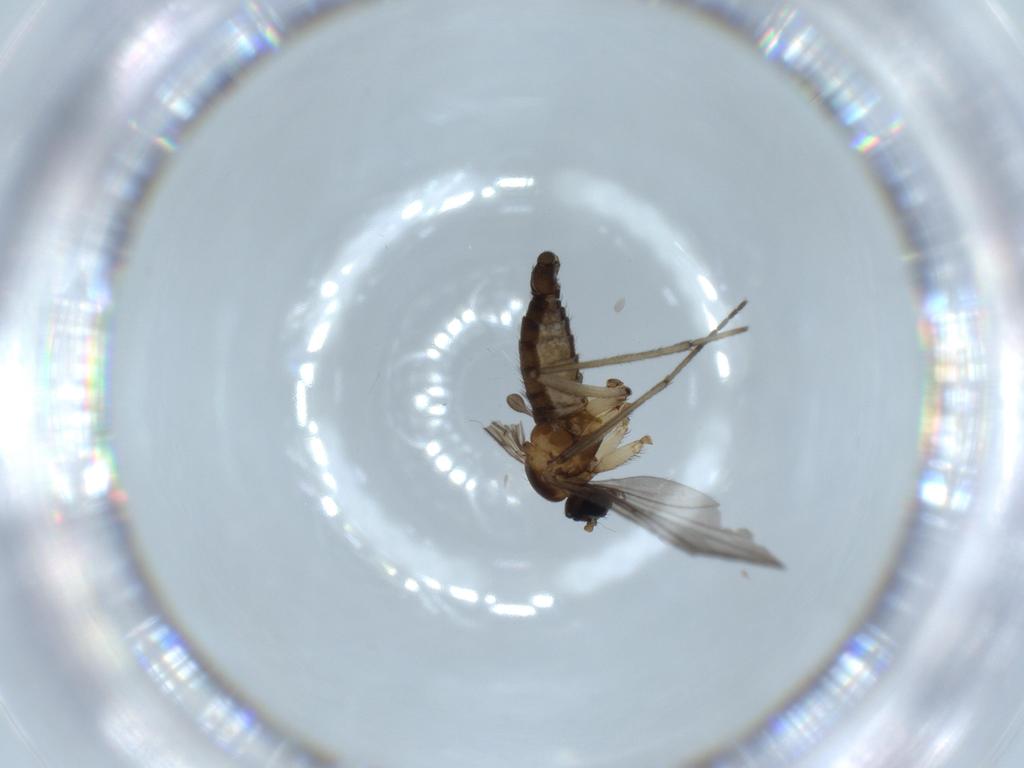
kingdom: Animalia
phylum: Arthropoda
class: Insecta
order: Diptera
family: Sciaridae
